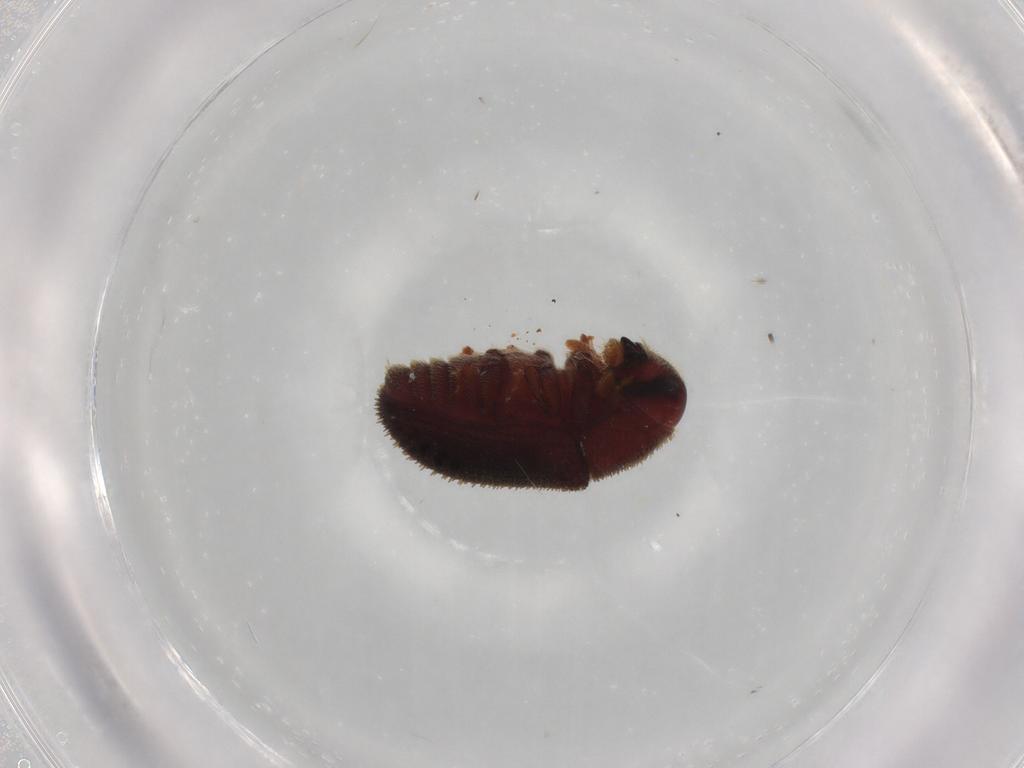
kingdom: Animalia
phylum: Arthropoda
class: Insecta
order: Coleoptera
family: Curculionidae
